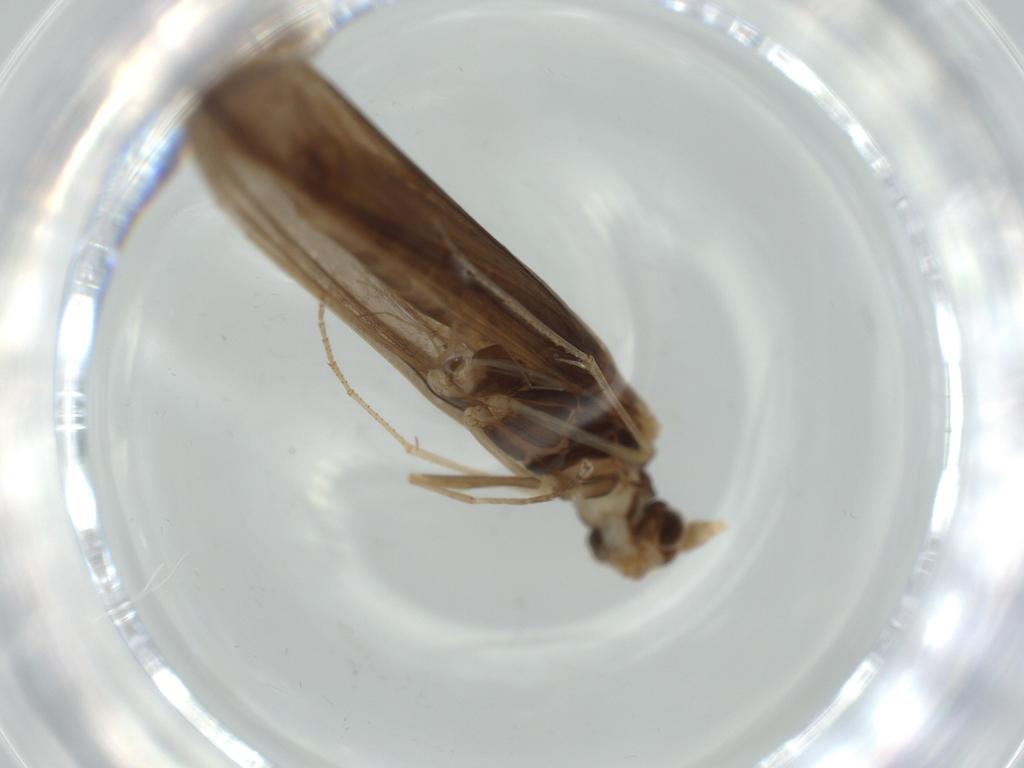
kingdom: Animalia
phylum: Arthropoda
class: Insecta
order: Trichoptera
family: Leptoceridae
